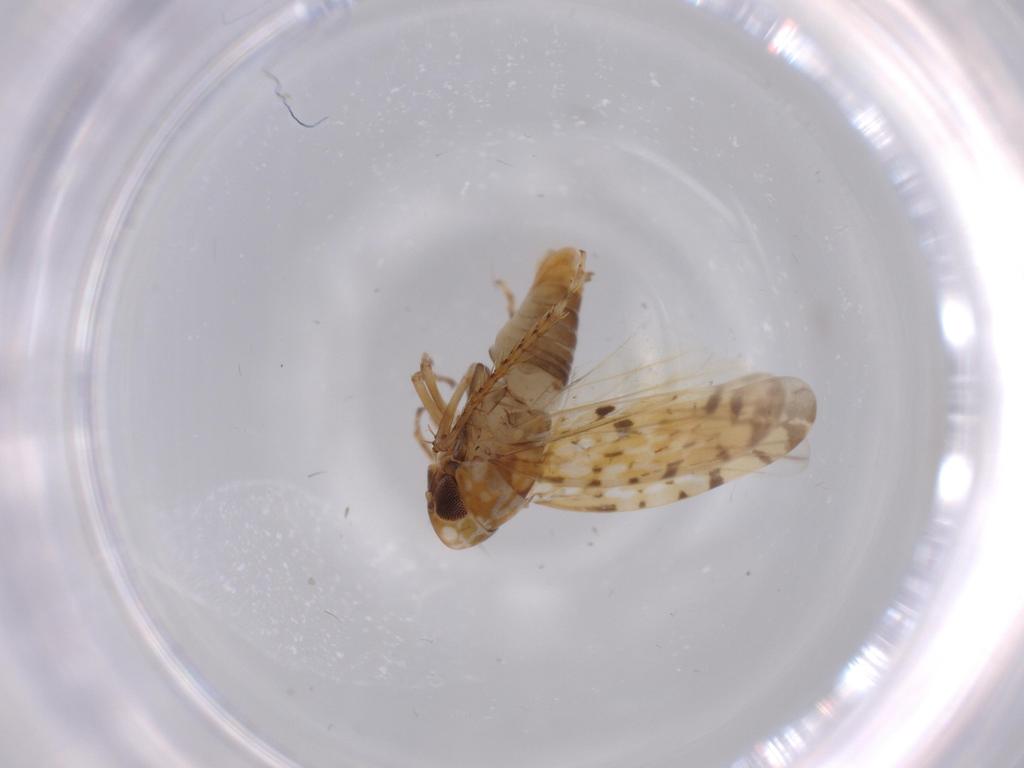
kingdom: Animalia
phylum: Arthropoda
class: Insecta
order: Hemiptera
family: Cicadellidae
